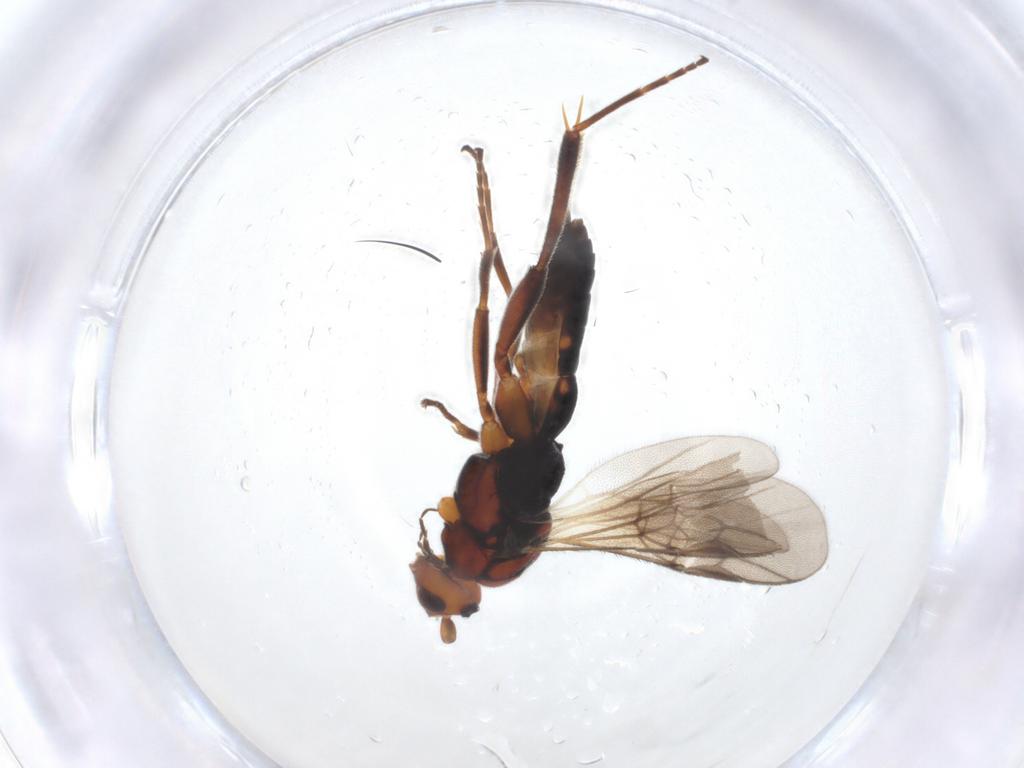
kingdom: Animalia
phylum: Arthropoda
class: Insecta
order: Hymenoptera
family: Braconidae
